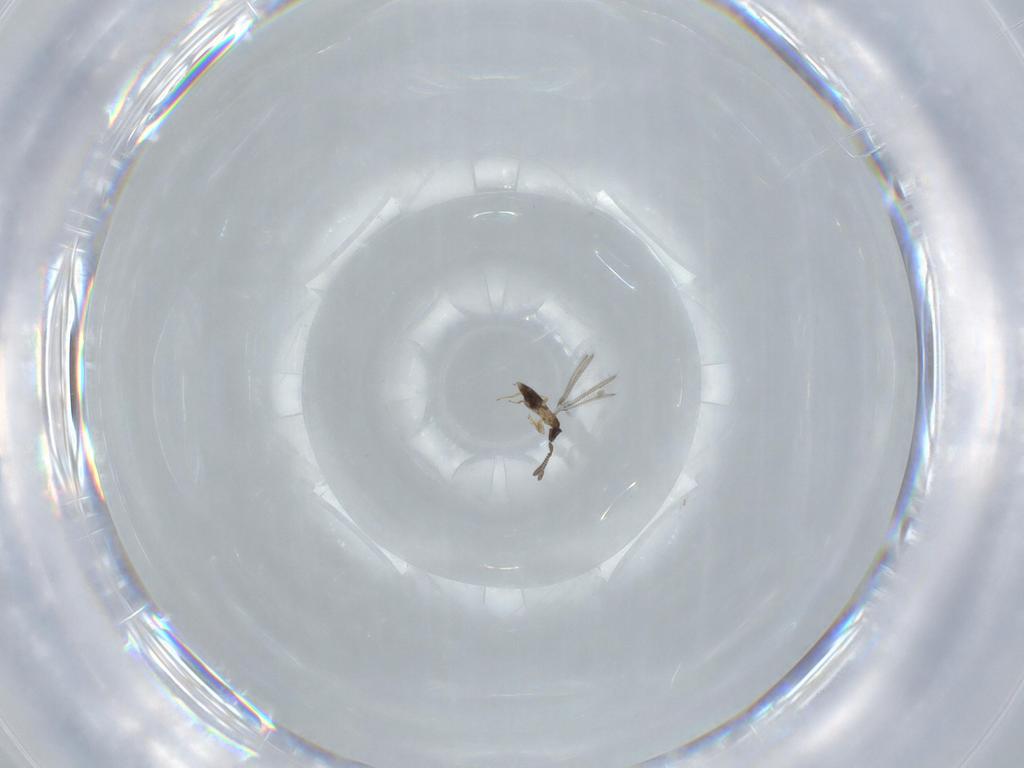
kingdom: Animalia
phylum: Arthropoda
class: Insecta
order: Hymenoptera
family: Mymaridae
